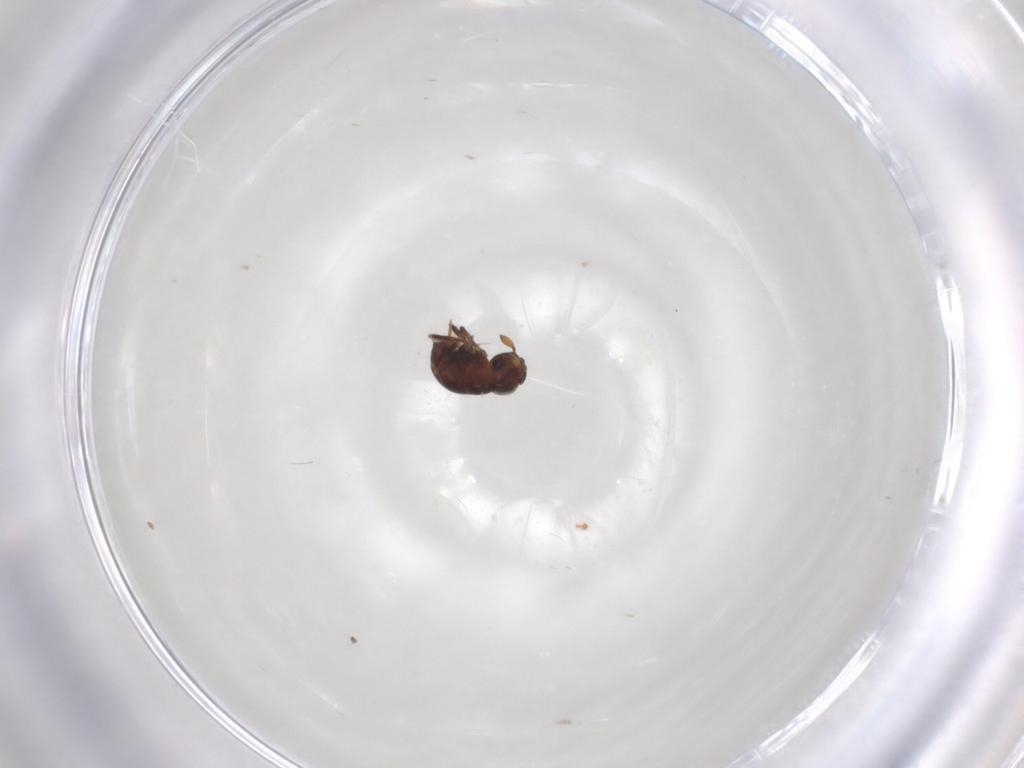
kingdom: Animalia
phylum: Arthropoda
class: Insecta
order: Hymenoptera
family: Scelionidae
